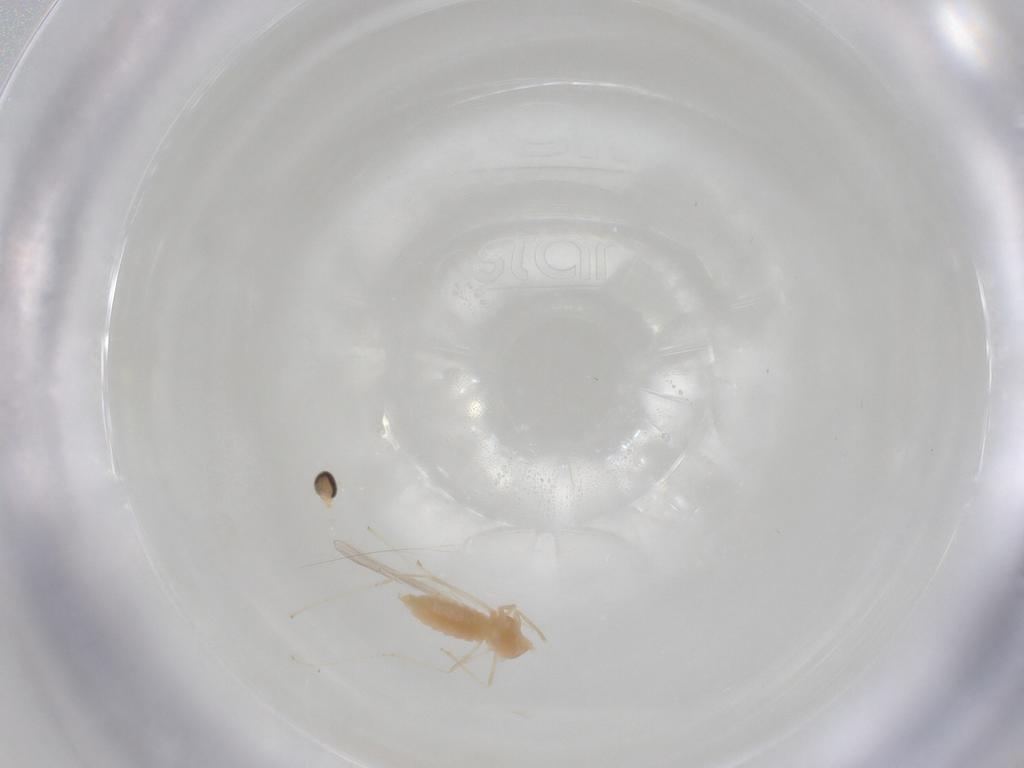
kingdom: Animalia
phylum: Arthropoda
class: Insecta
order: Diptera
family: Cecidomyiidae
